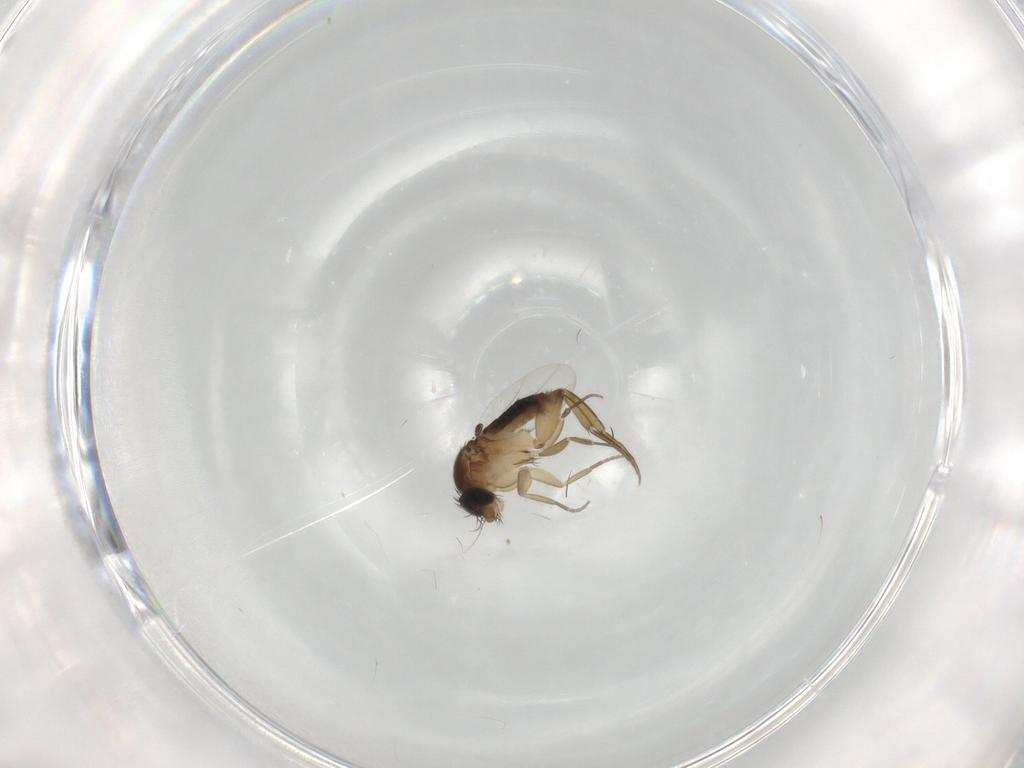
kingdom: Animalia
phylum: Arthropoda
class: Insecta
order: Diptera
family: Phoridae
